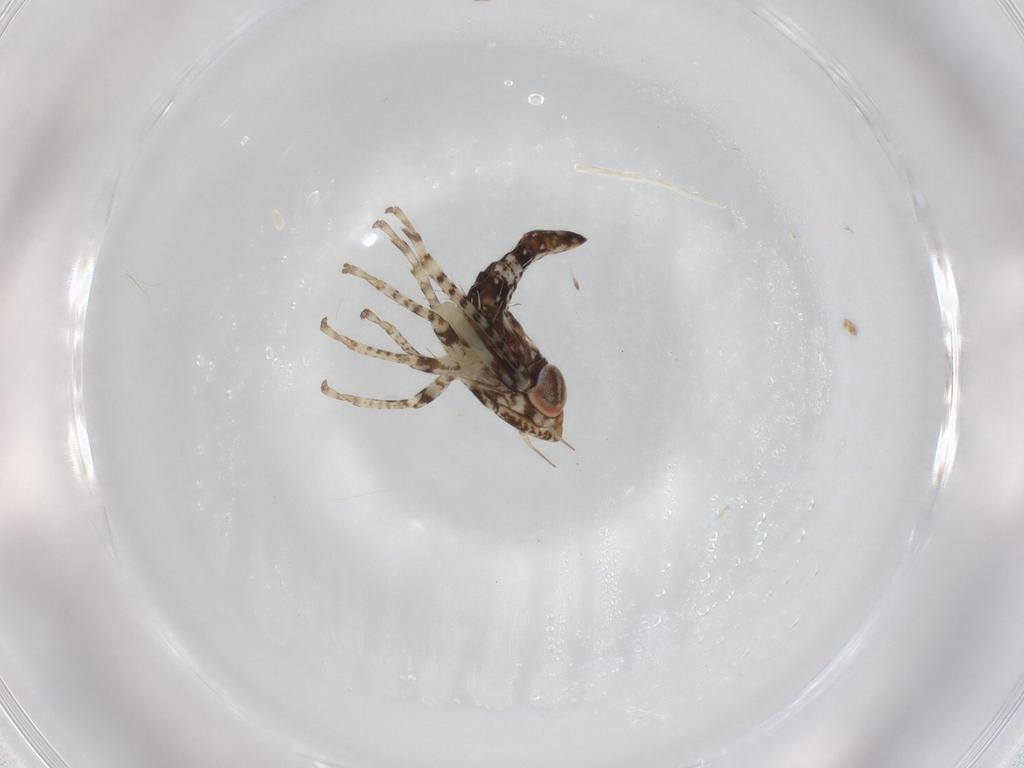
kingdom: Animalia
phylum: Arthropoda
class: Insecta
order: Hemiptera
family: Cicadellidae
